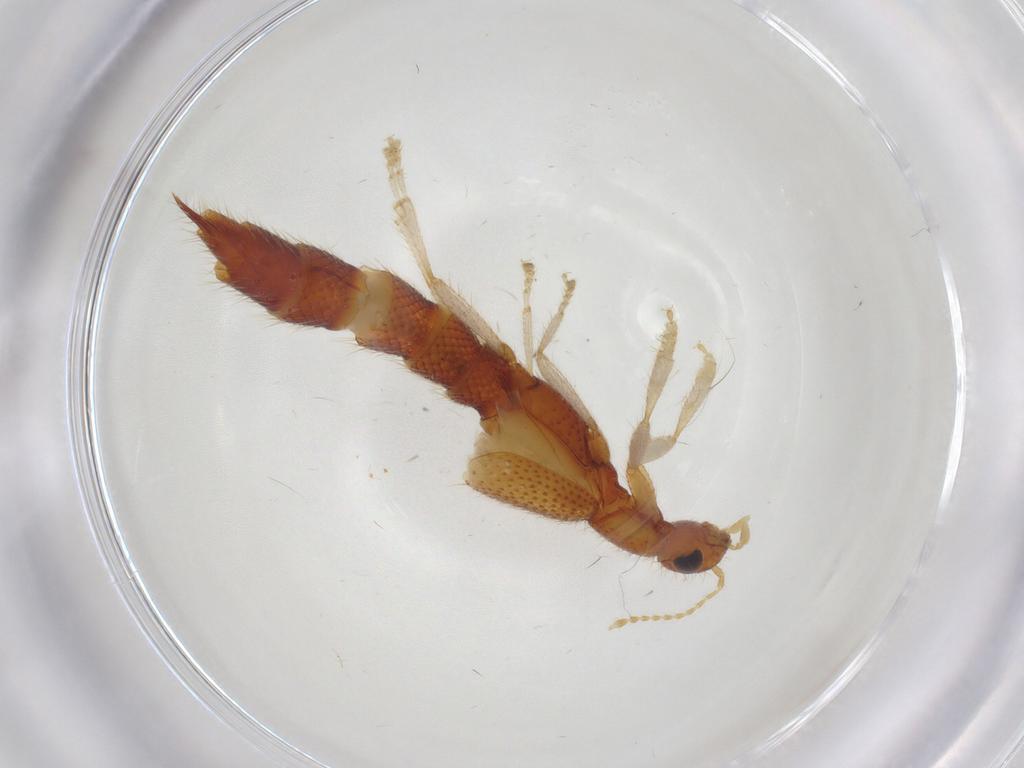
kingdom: Animalia
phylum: Arthropoda
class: Insecta
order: Coleoptera
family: Staphylinidae
